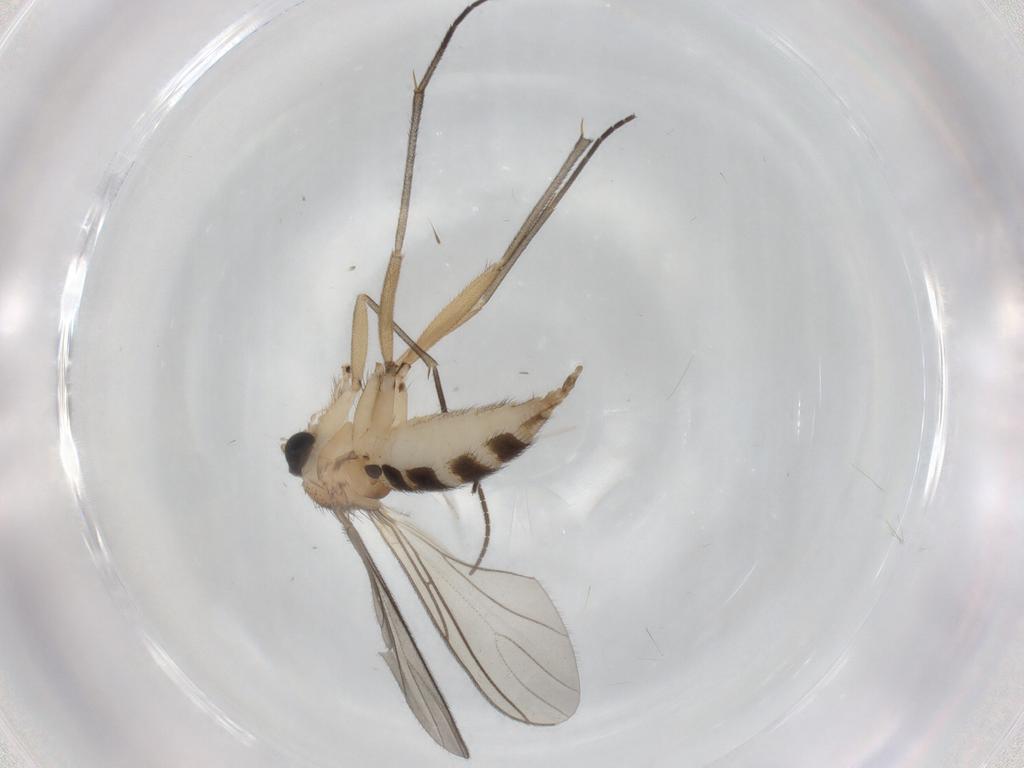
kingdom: Animalia
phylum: Arthropoda
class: Insecta
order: Diptera
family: Sciaridae
